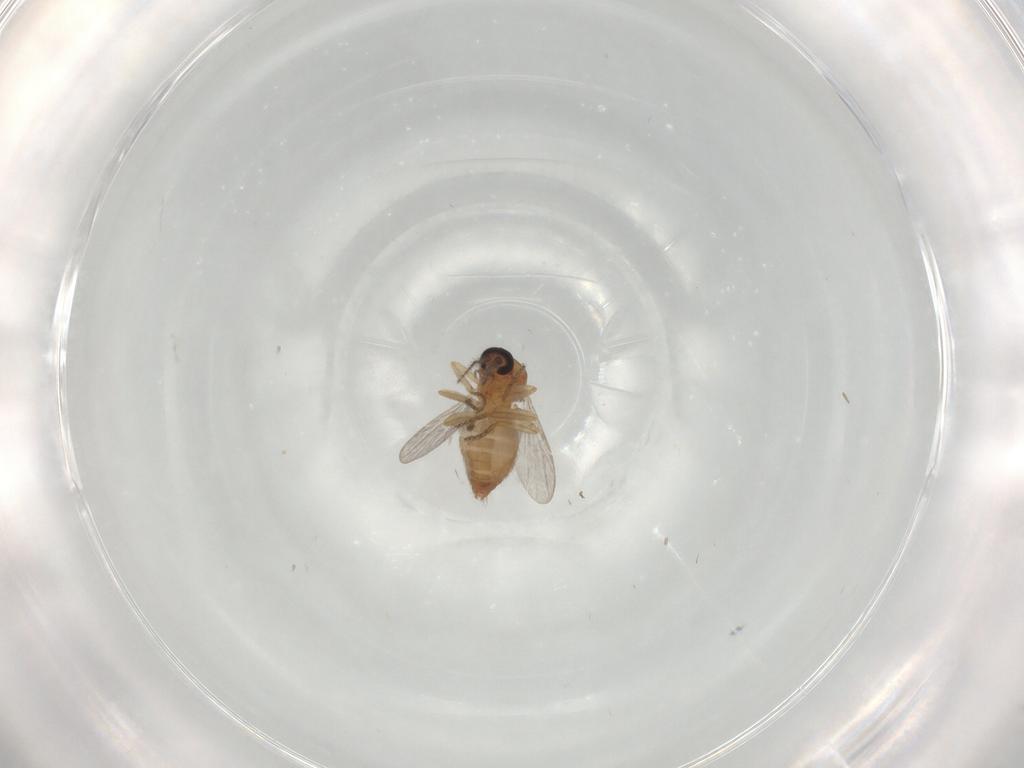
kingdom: Animalia
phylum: Arthropoda
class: Insecta
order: Diptera
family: Ceratopogonidae
